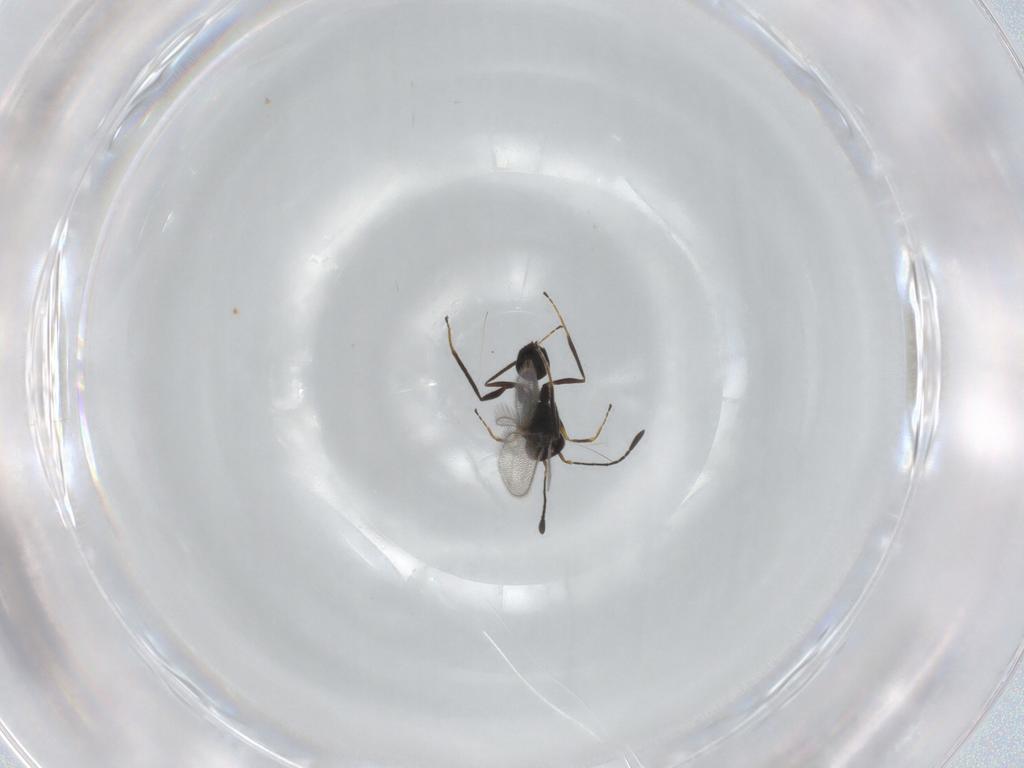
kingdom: Animalia
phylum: Arthropoda
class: Insecta
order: Hymenoptera
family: Mymaridae
